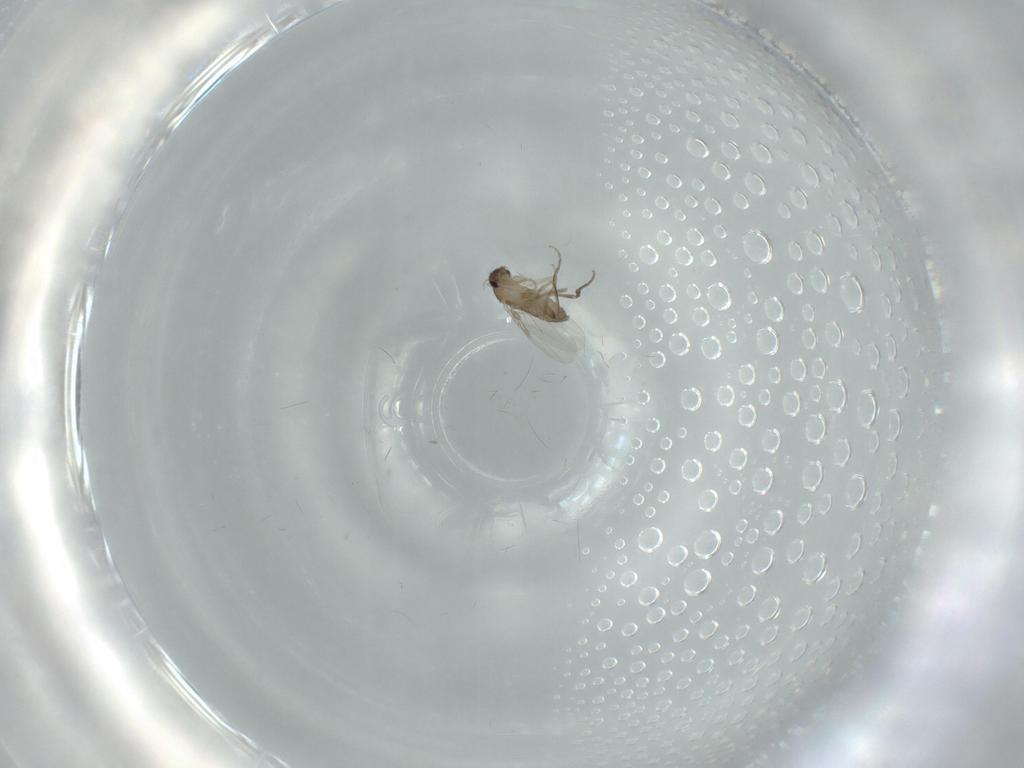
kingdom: Animalia
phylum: Arthropoda
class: Insecta
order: Diptera
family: Phoridae
